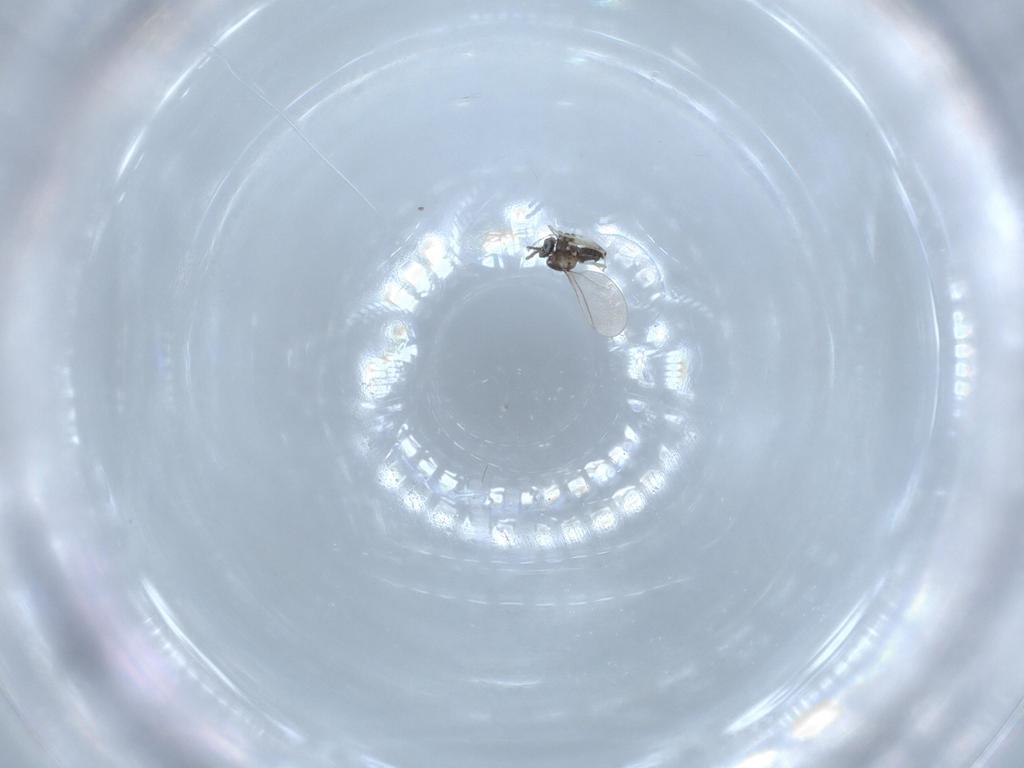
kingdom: Animalia
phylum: Arthropoda
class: Insecta
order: Diptera
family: Cecidomyiidae
